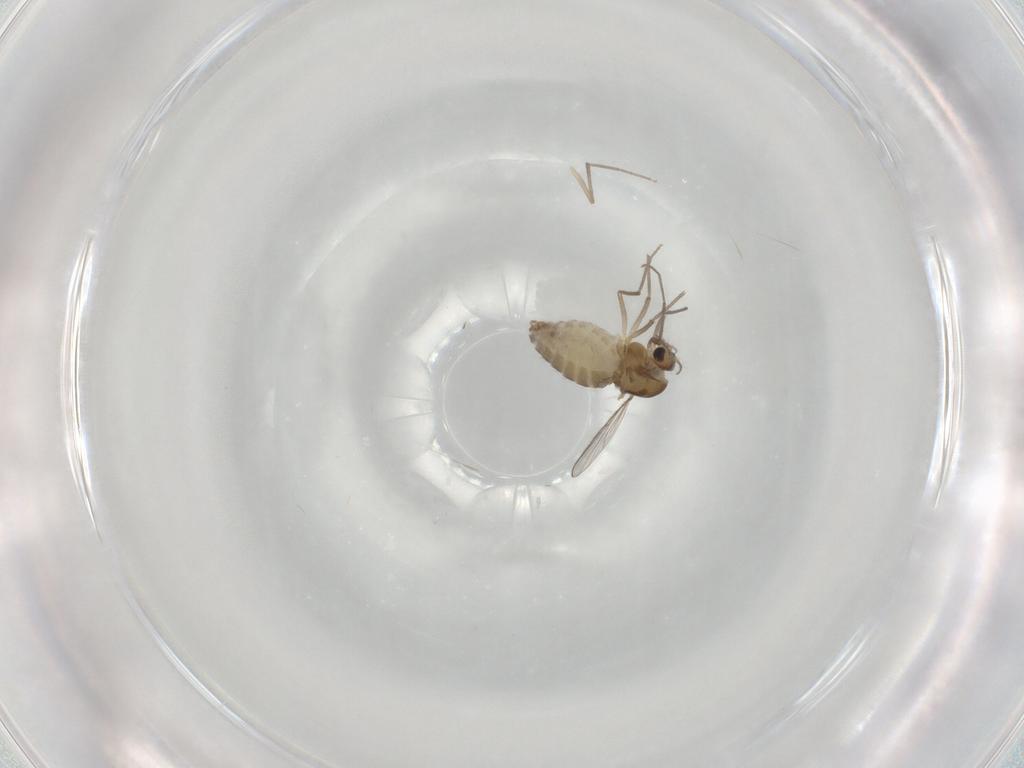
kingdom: Animalia
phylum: Arthropoda
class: Insecta
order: Diptera
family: Chironomidae
